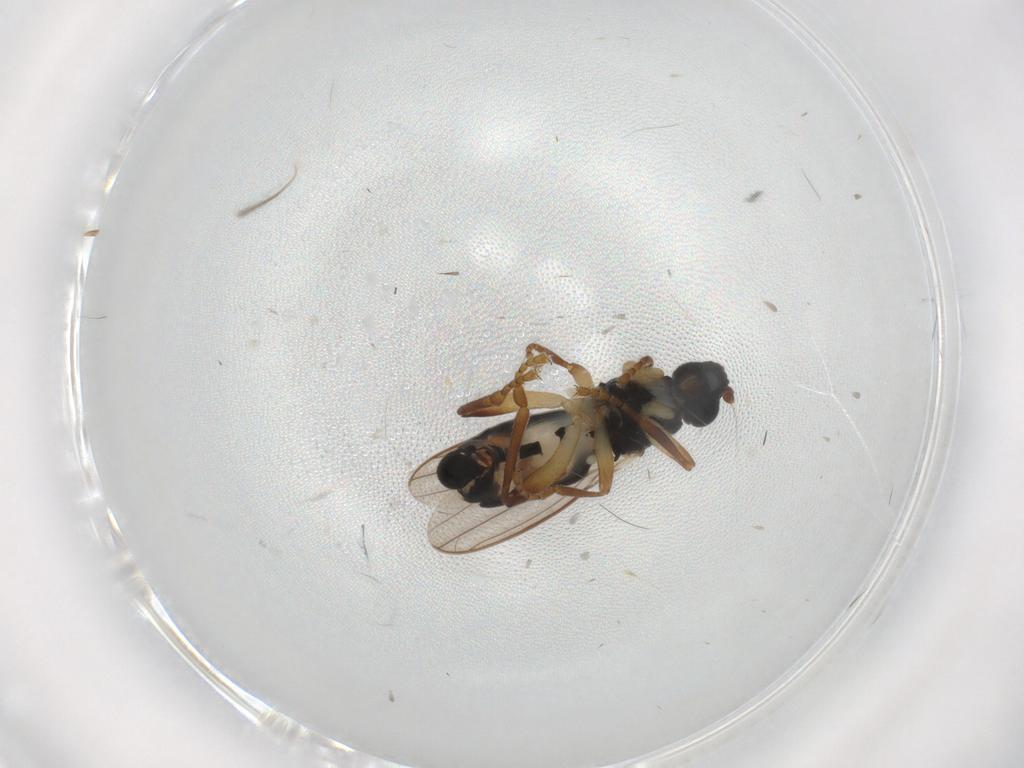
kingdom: Animalia
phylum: Arthropoda
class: Insecta
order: Diptera
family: Sphaeroceridae
